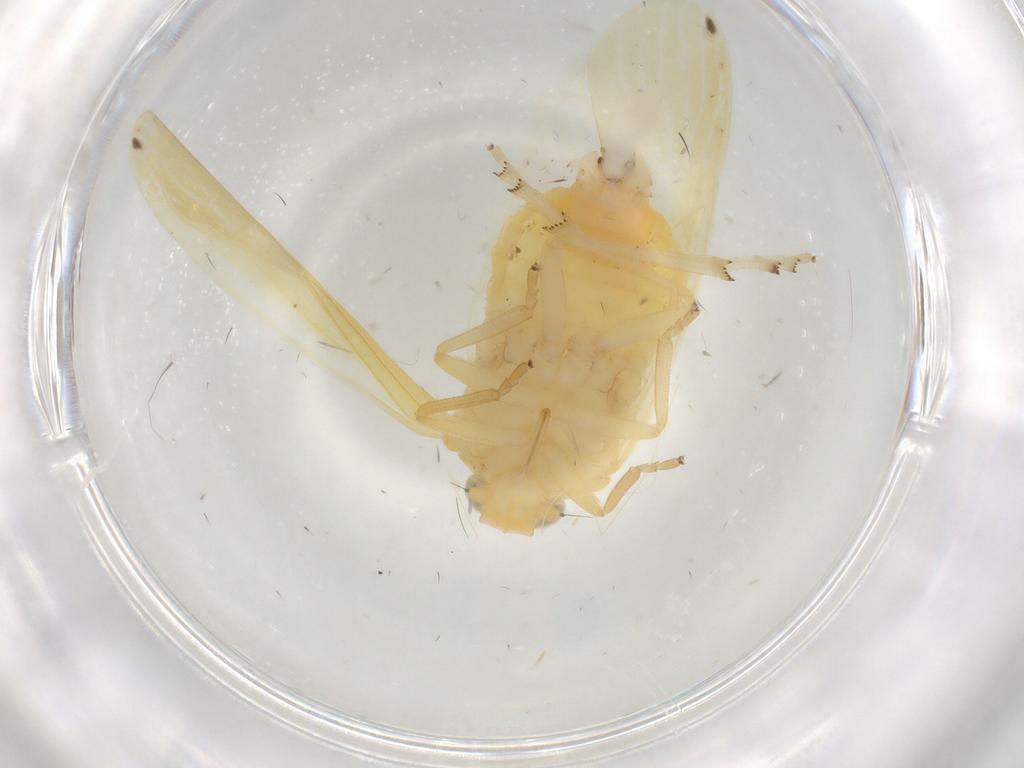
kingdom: Animalia
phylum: Arthropoda
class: Insecta
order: Hemiptera
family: Achilidae
